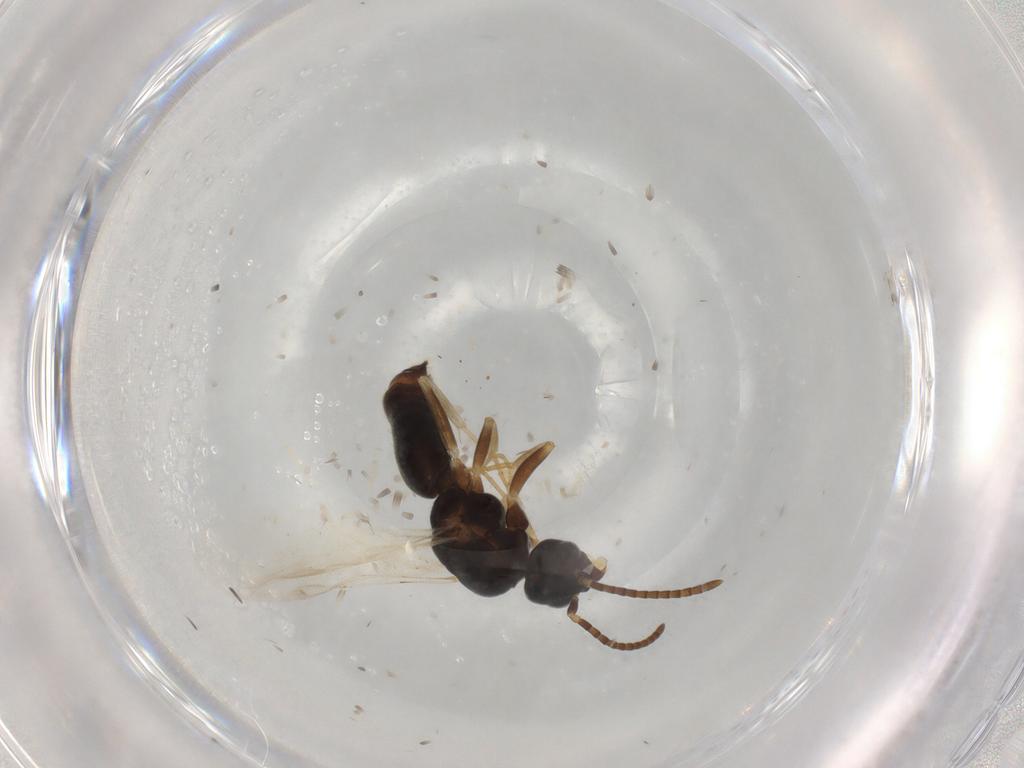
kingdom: Animalia
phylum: Arthropoda
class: Insecta
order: Hymenoptera
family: Formicidae
